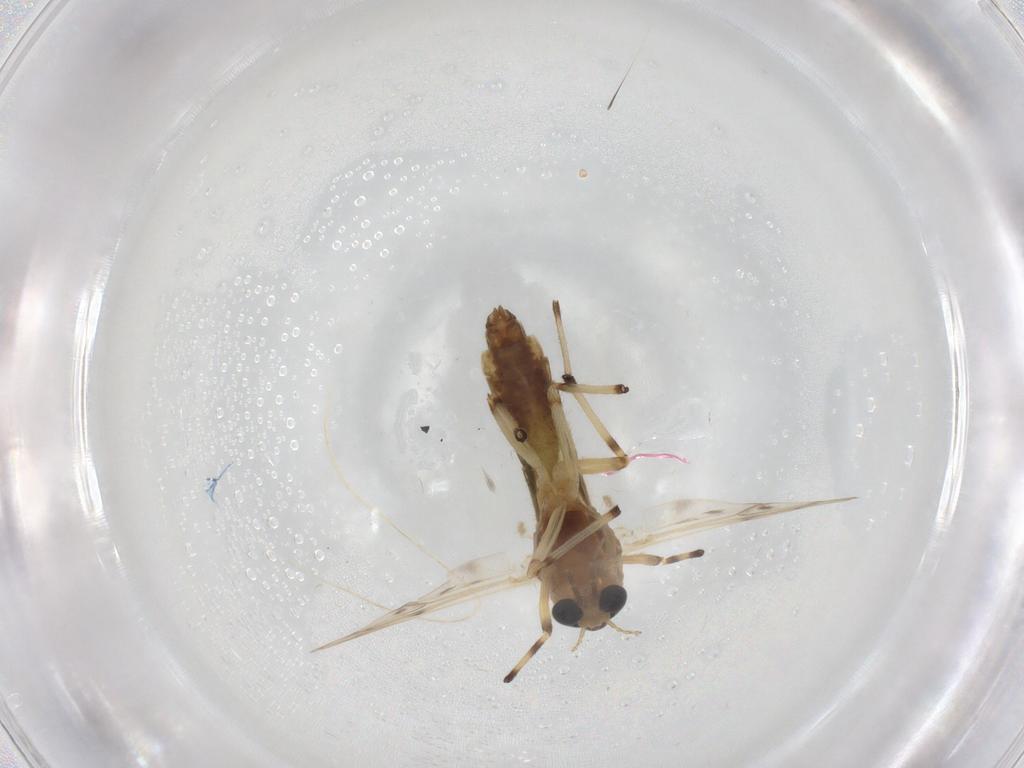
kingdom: Animalia
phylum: Arthropoda
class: Insecta
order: Diptera
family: Chironomidae
